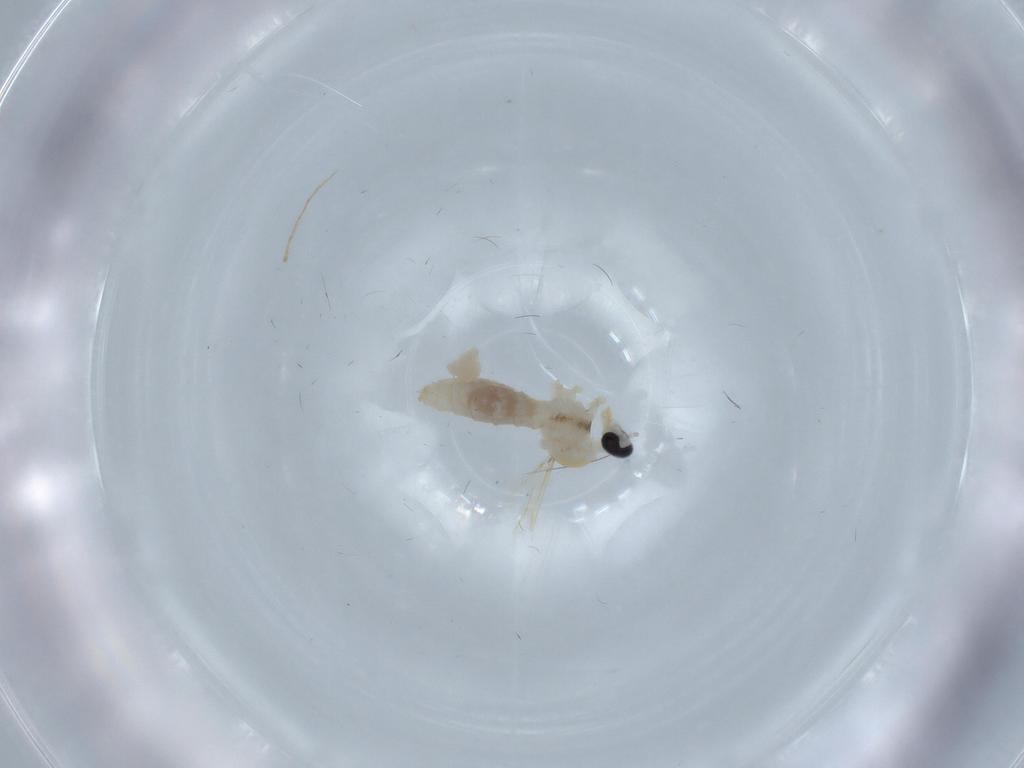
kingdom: Animalia
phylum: Arthropoda
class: Insecta
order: Diptera
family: Cecidomyiidae
